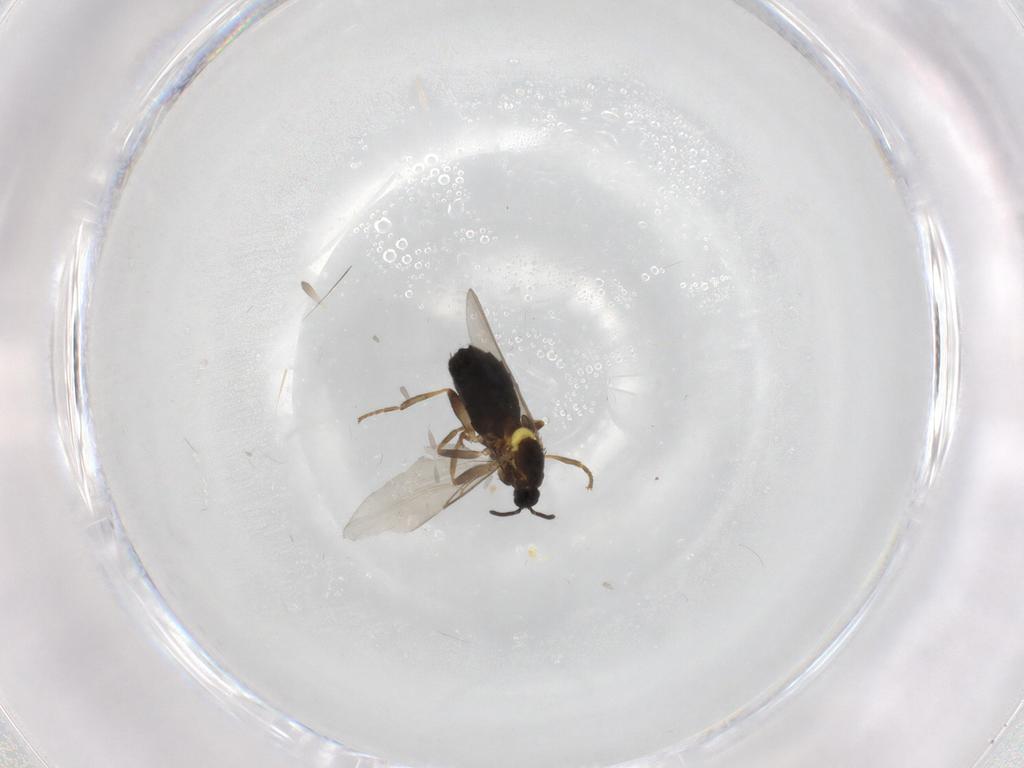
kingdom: Animalia
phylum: Arthropoda
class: Insecta
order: Diptera
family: Scatopsidae
